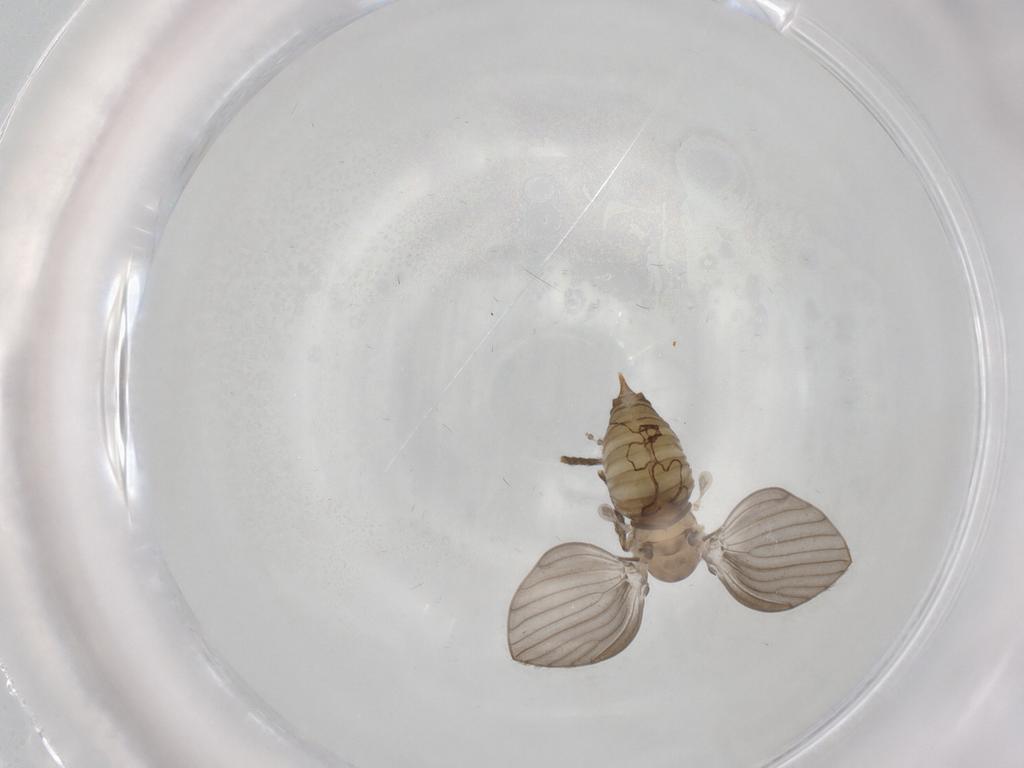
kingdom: Animalia
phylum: Arthropoda
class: Insecta
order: Diptera
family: Psychodidae
